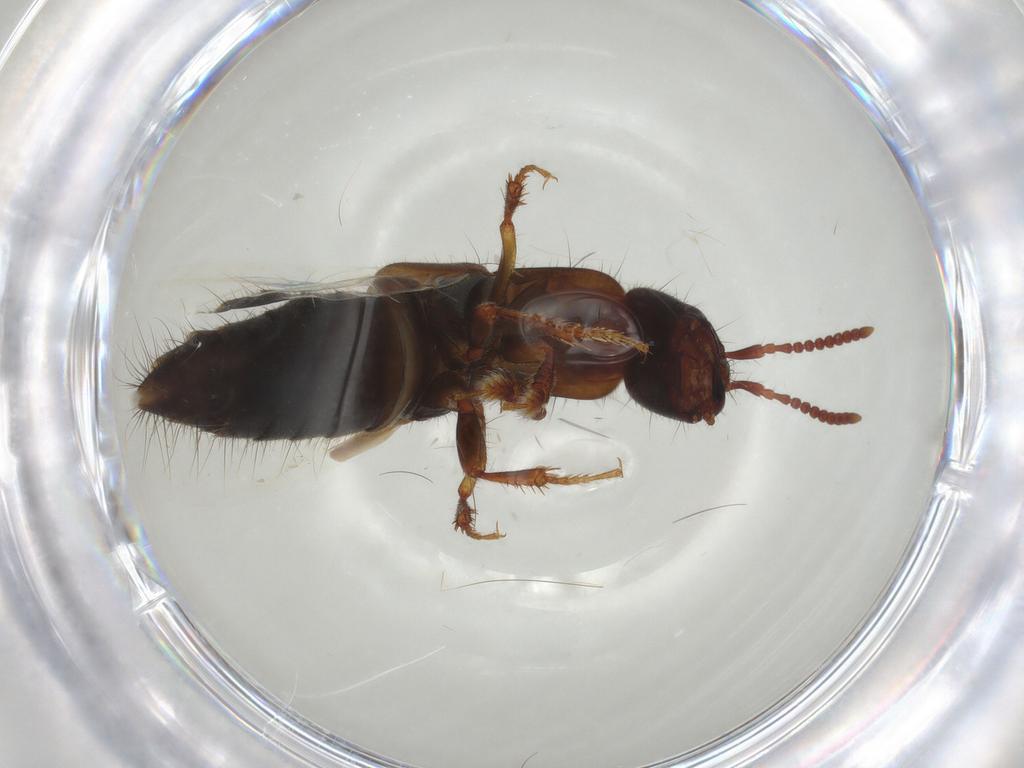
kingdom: Animalia
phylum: Arthropoda
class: Insecta
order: Coleoptera
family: Staphylinidae
